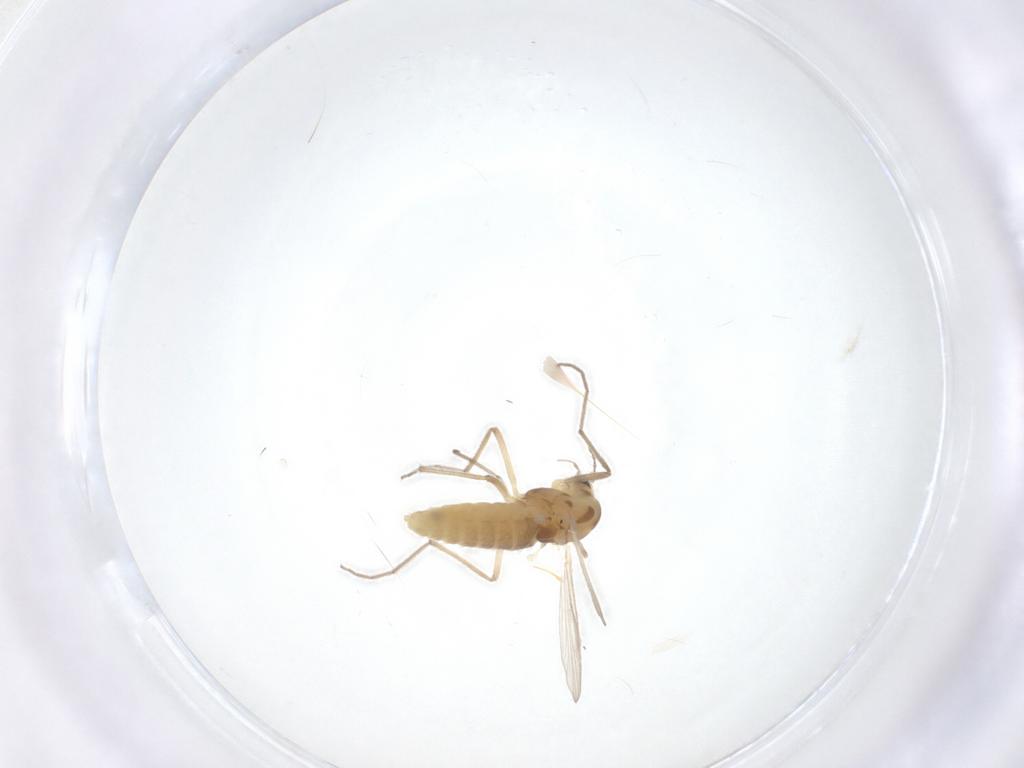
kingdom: Animalia
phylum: Arthropoda
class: Insecta
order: Diptera
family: Chironomidae
